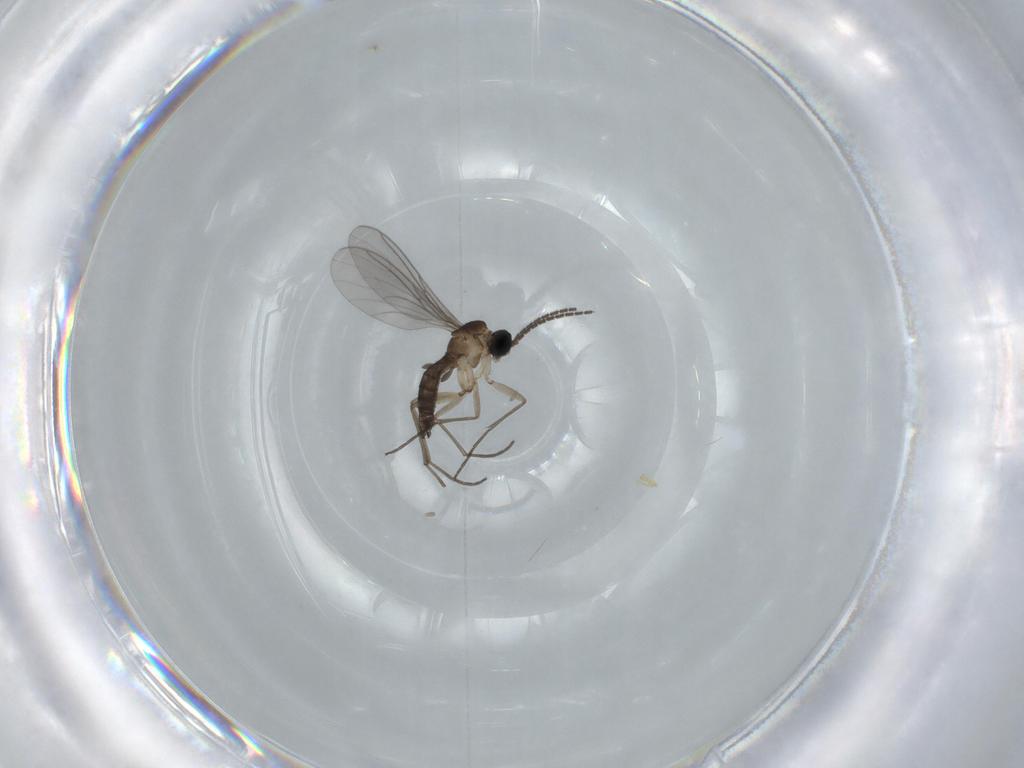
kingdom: Animalia
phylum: Arthropoda
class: Insecta
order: Diptera
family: Sciaridae
